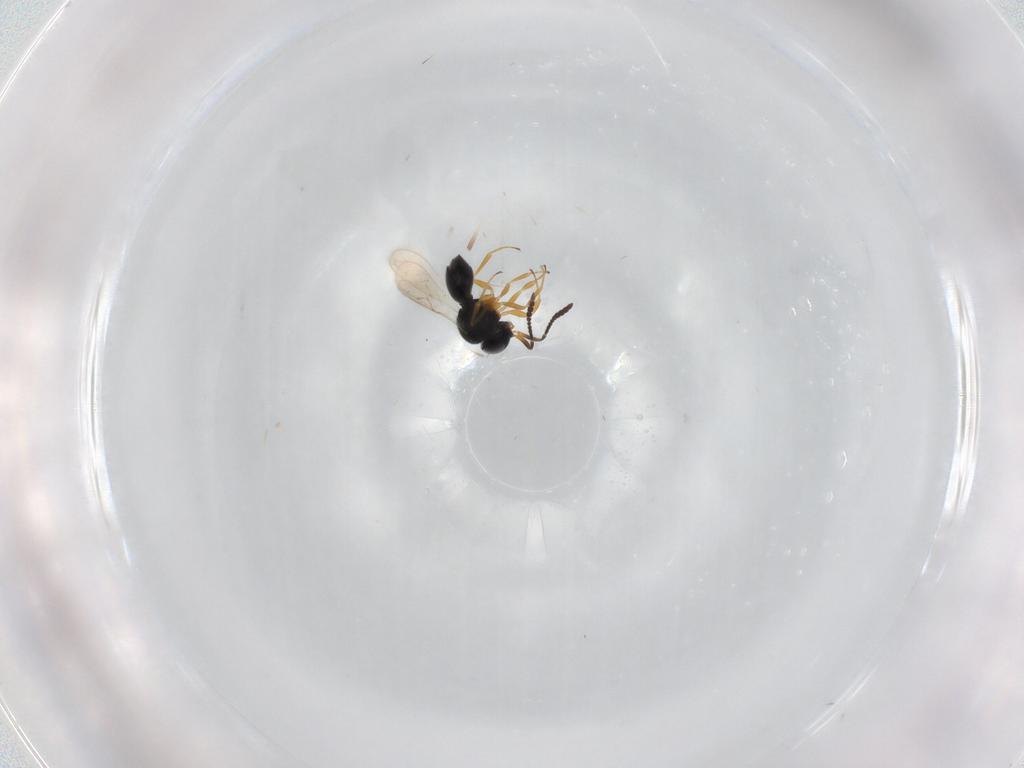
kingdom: Animalia
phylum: Arthropoda
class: Insecta
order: Hymenoptera
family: Scelionidae
